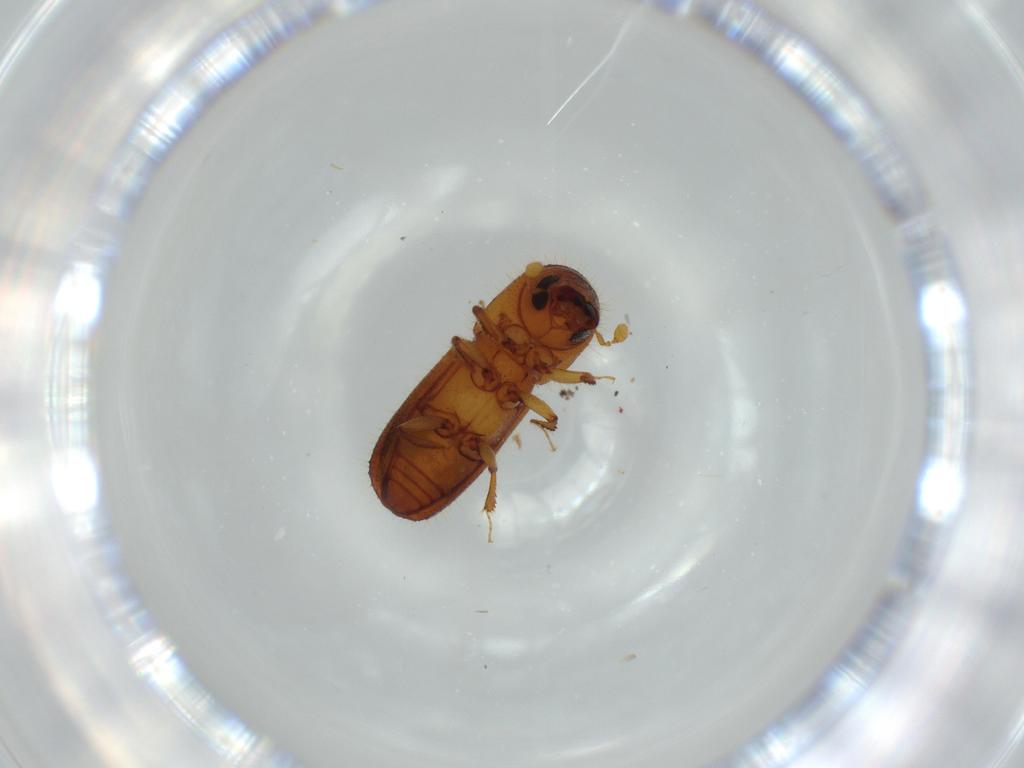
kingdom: Animalia
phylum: Arthropoda
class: Insecta
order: Coleoptera
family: Curculionidae
